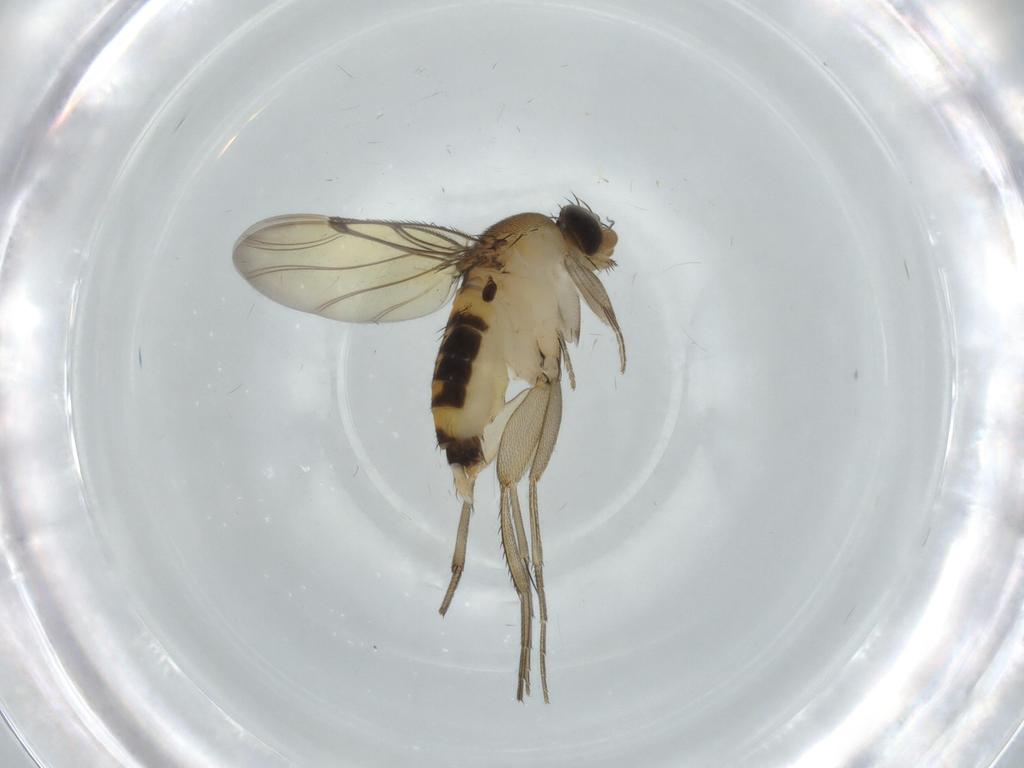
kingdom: Animalia
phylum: Arthropoda
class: Insecta
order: Diptera
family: Phoridae
